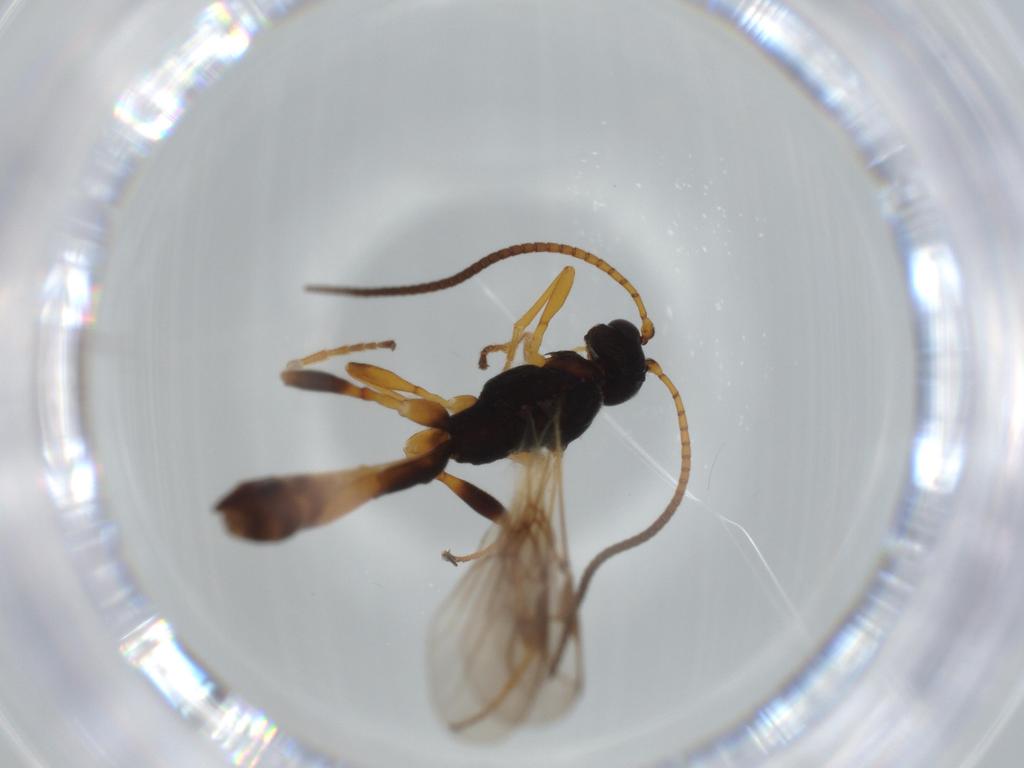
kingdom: Animalia
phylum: Arthropoda
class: Insecta
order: Hymenoptera
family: Braconidae
